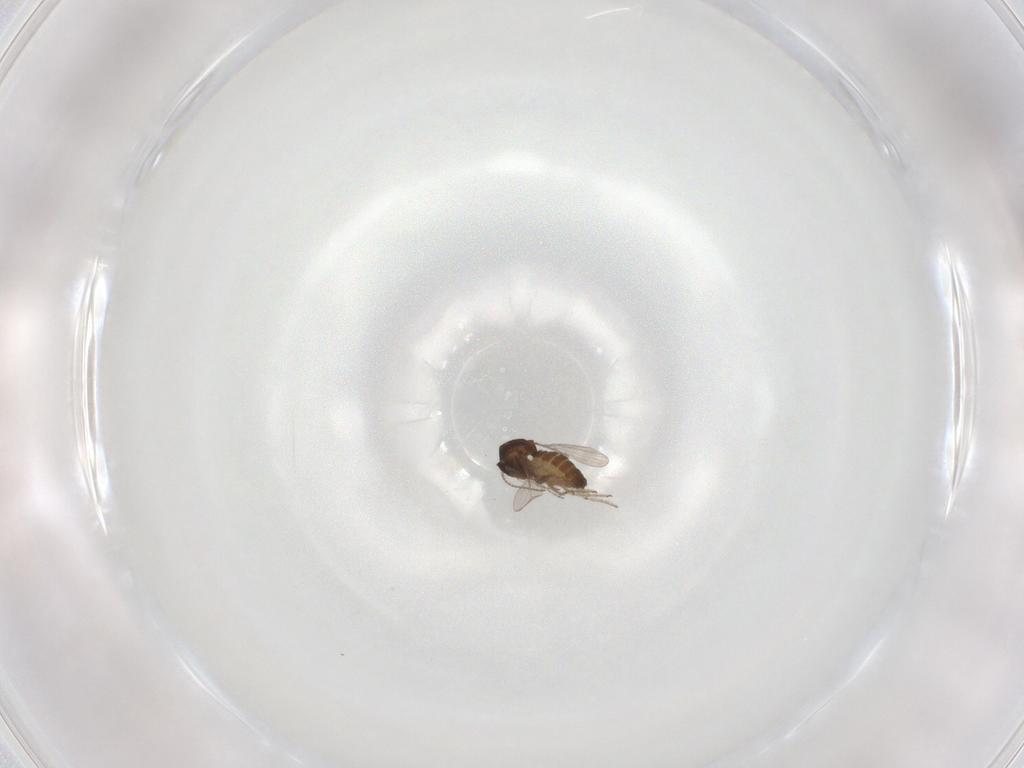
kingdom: Animalia
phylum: Arthropoda
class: Insecta
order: Diptera
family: Ceratopogonidae
